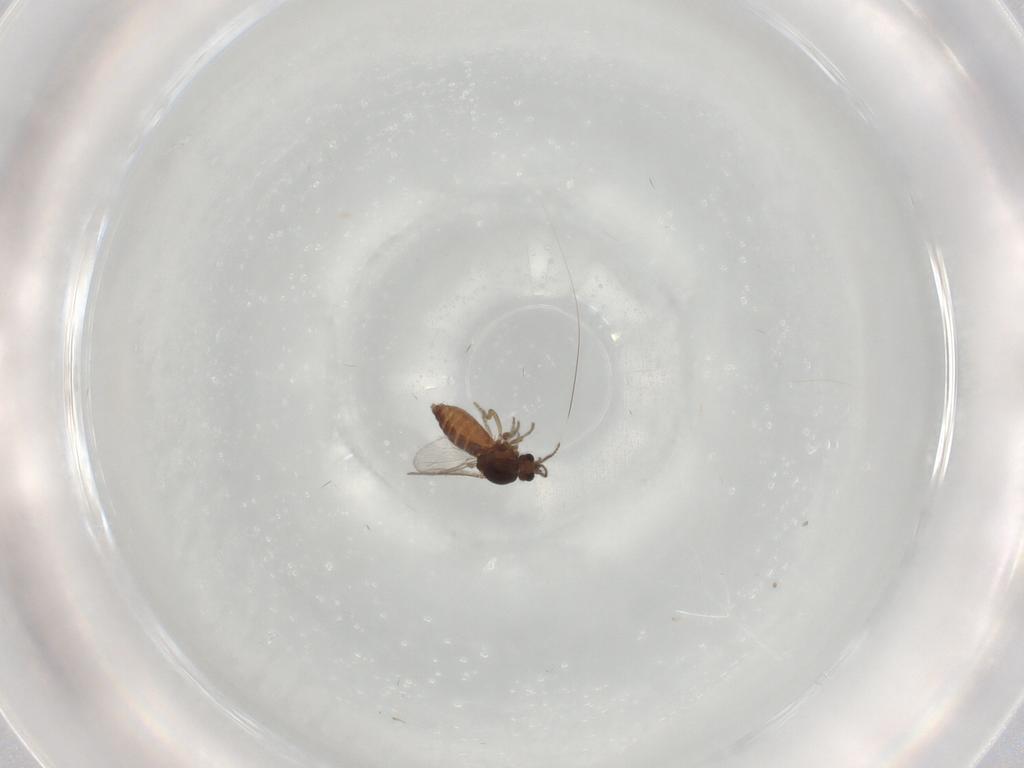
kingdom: Animalia
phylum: Arthropoda
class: Insecta
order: Diptera
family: Ceratopogonidae
